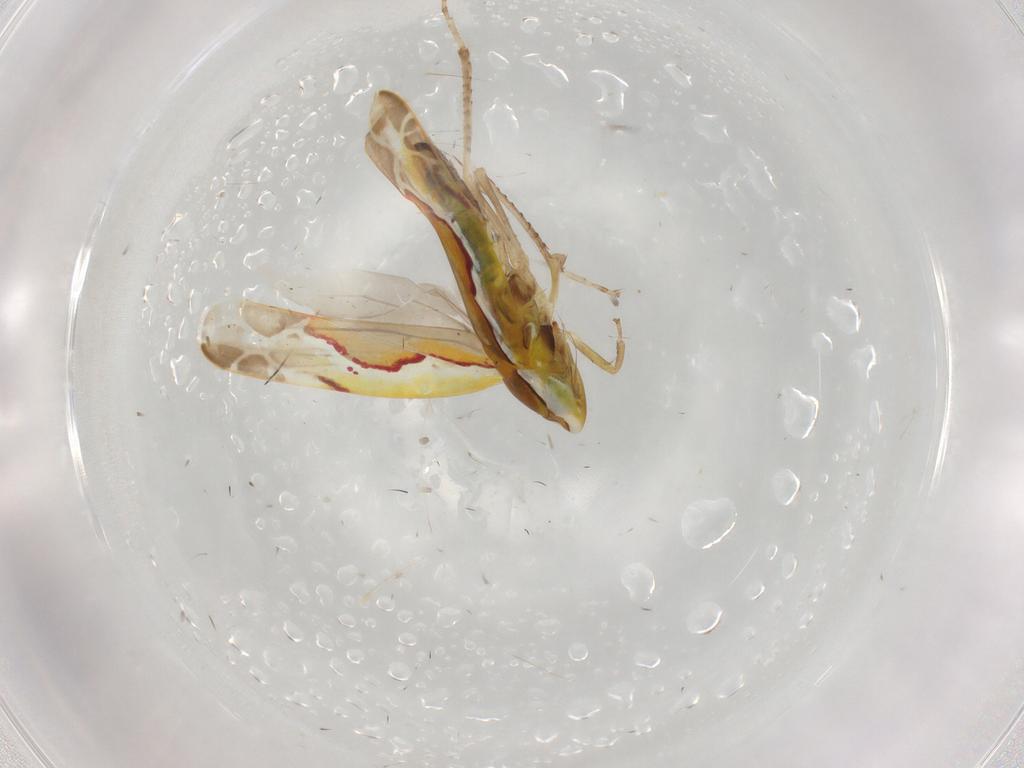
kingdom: Animalia
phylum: Arthropoda
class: Insecta
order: Hemiptera
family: Cicadellidae
